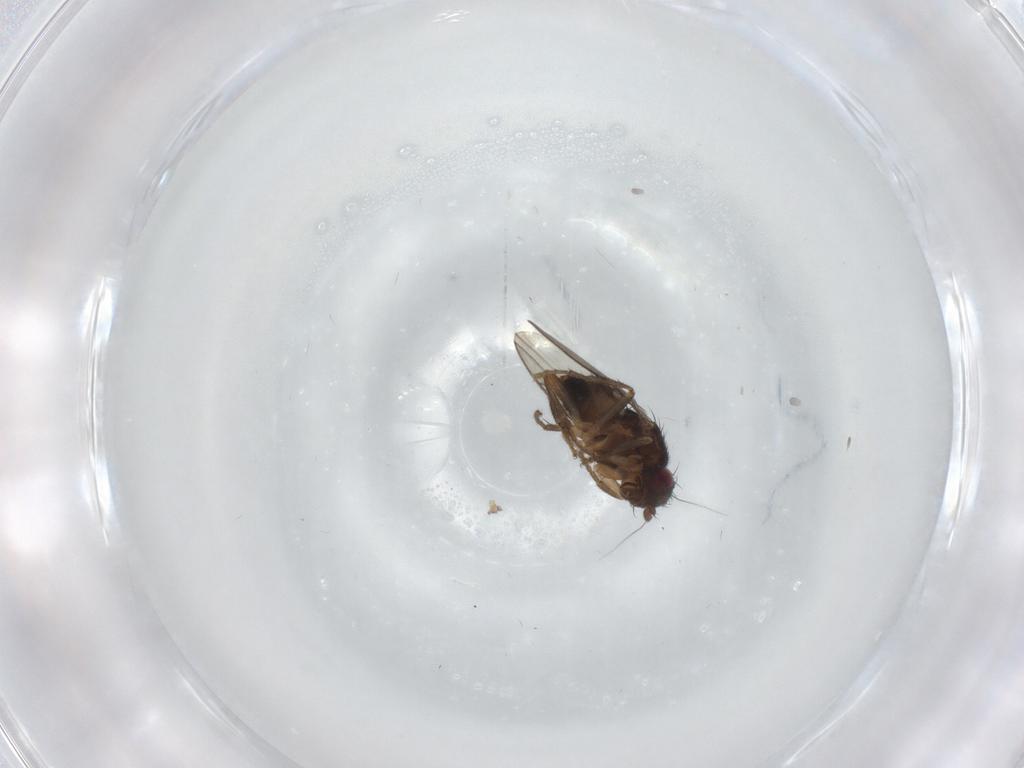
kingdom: Animalia
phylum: Arthropoda
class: Insecta
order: Diptera
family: Sphaeroceridae
